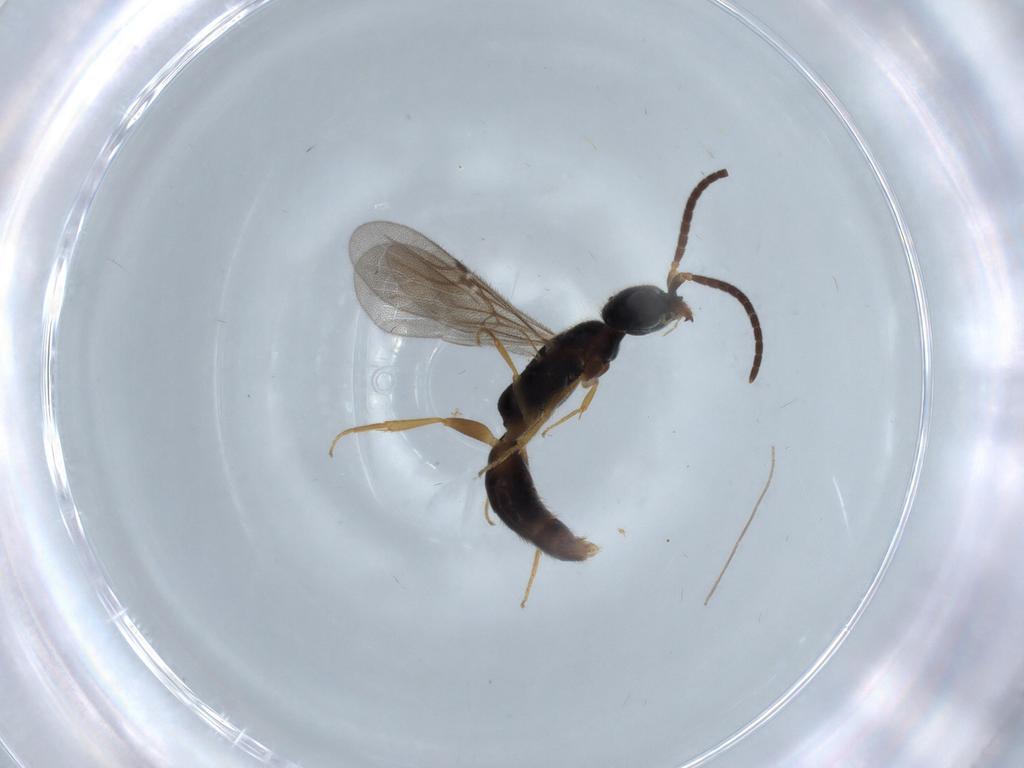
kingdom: Animalia
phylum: Arthropoda
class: Insecta
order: Hymenoptera
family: Bethylidae
